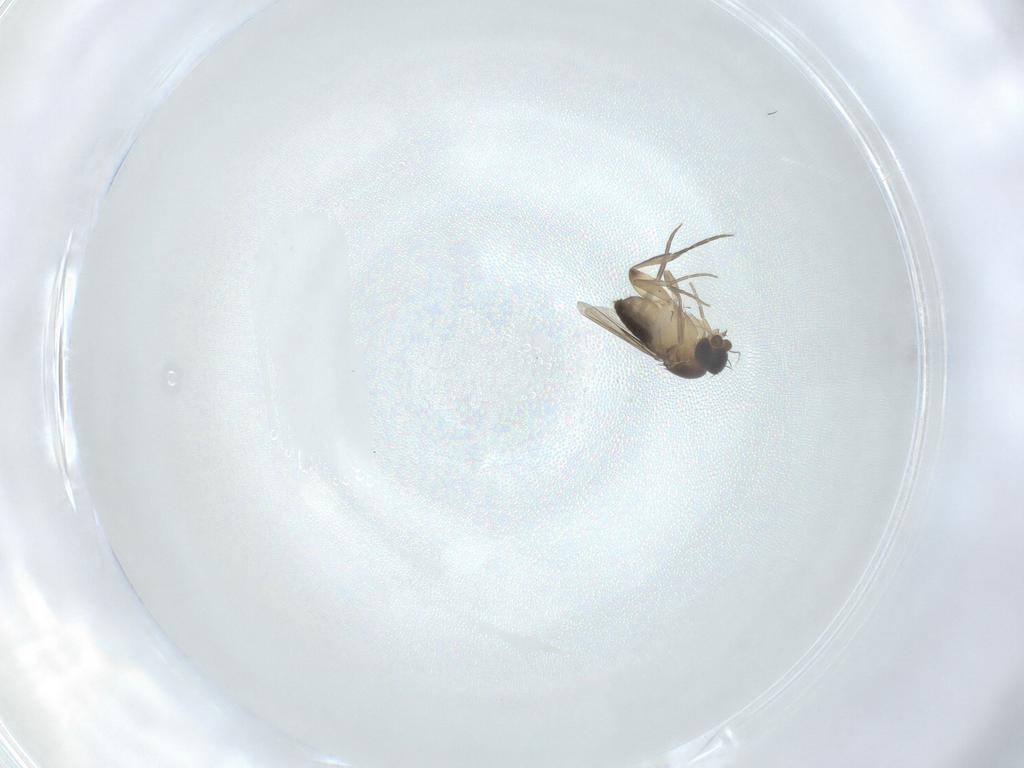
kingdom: Animalia
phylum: Arthropoda
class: Insecta
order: Diptera
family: Phoridae
